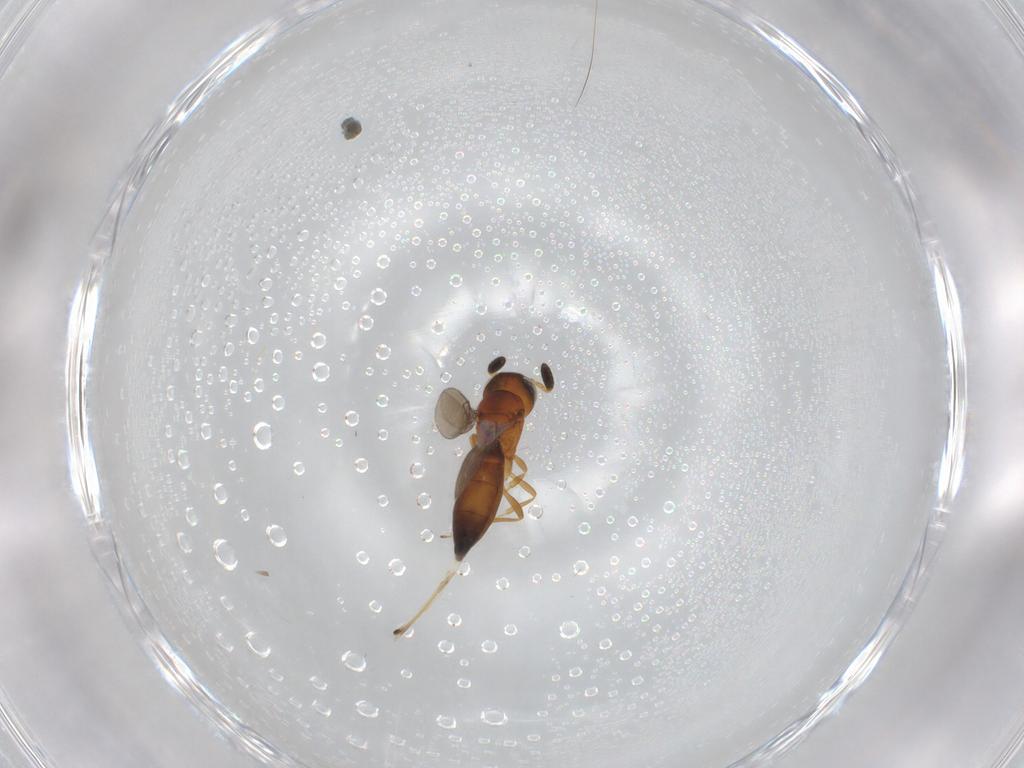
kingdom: Animalia
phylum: Arthropoda
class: Insecta
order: Hymenoptera
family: Scelionidae
